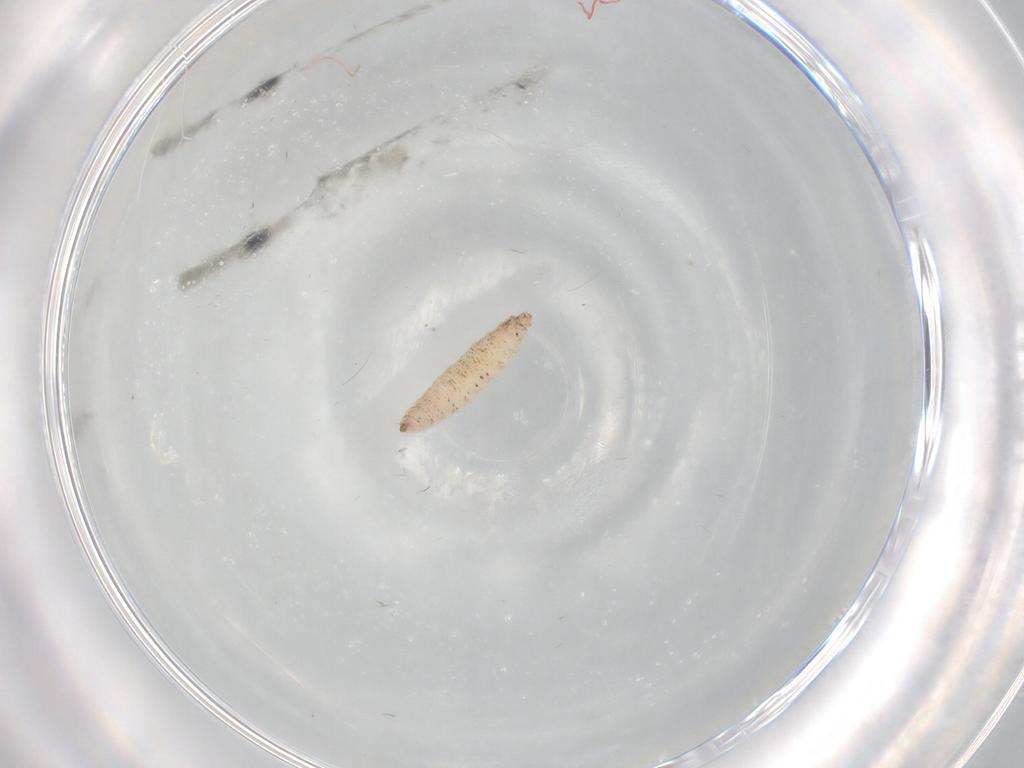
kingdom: Animalia
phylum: Arthropoda
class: Insecta
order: Diptera
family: Cecidomyiidae
